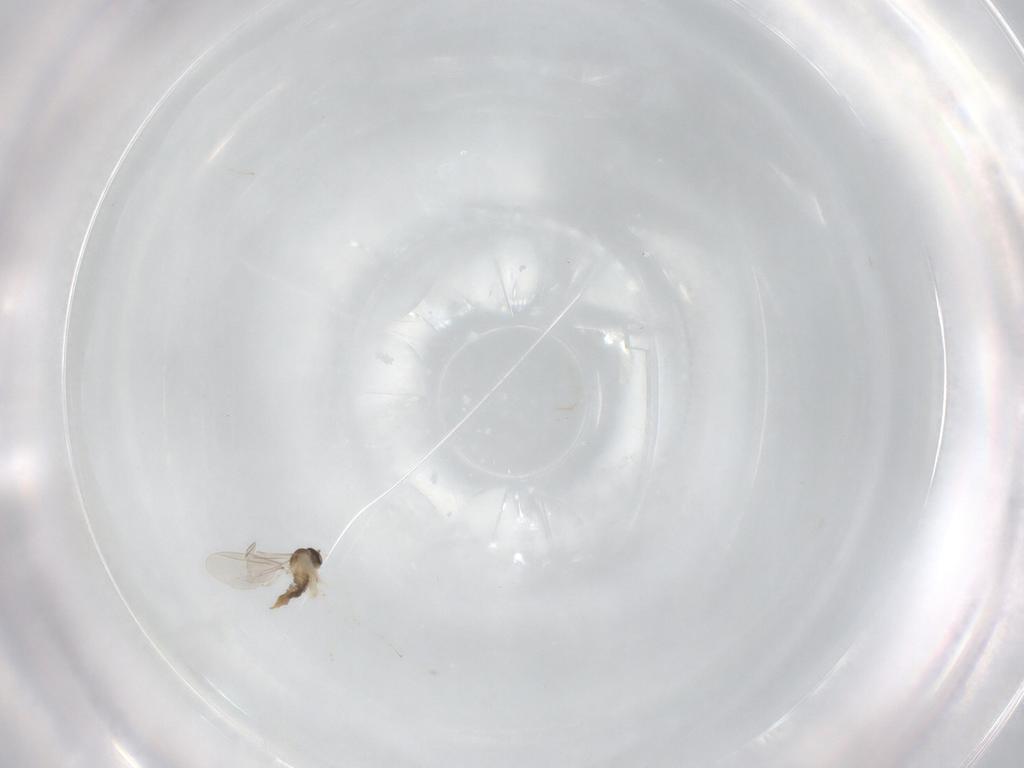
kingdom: Animalia
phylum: Arthropoda
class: Insecta
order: Diptera
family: Cecidomyiidae
